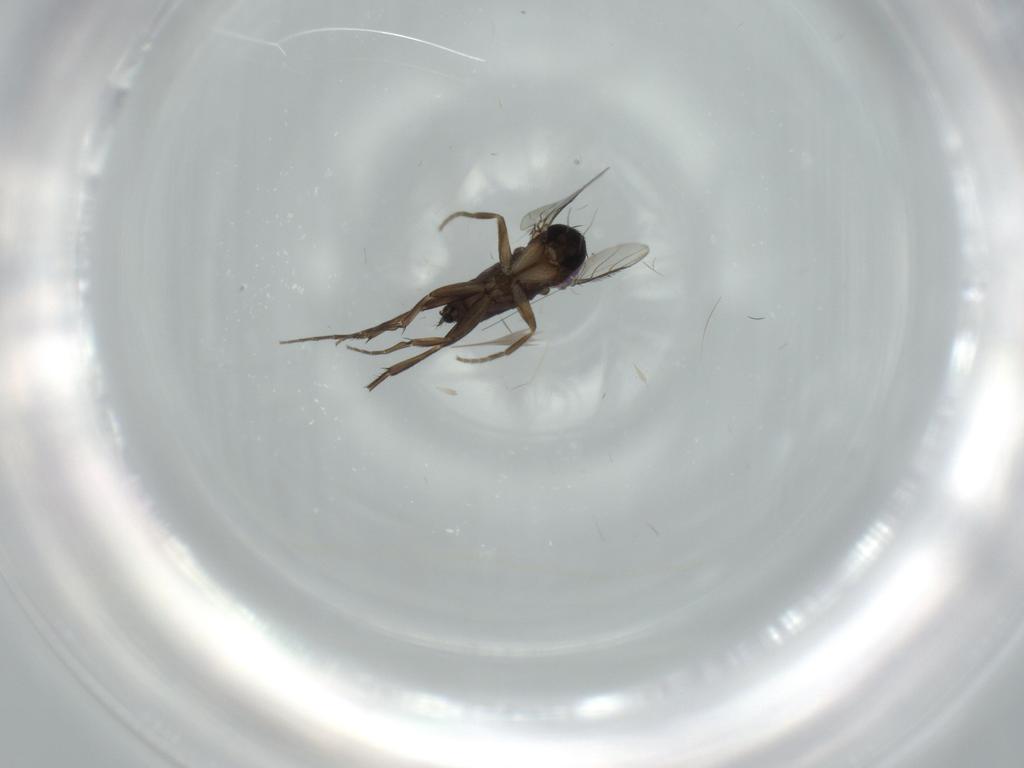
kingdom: Animalia
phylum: Arthropoda
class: Insecta
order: Diptera
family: Phoridae
